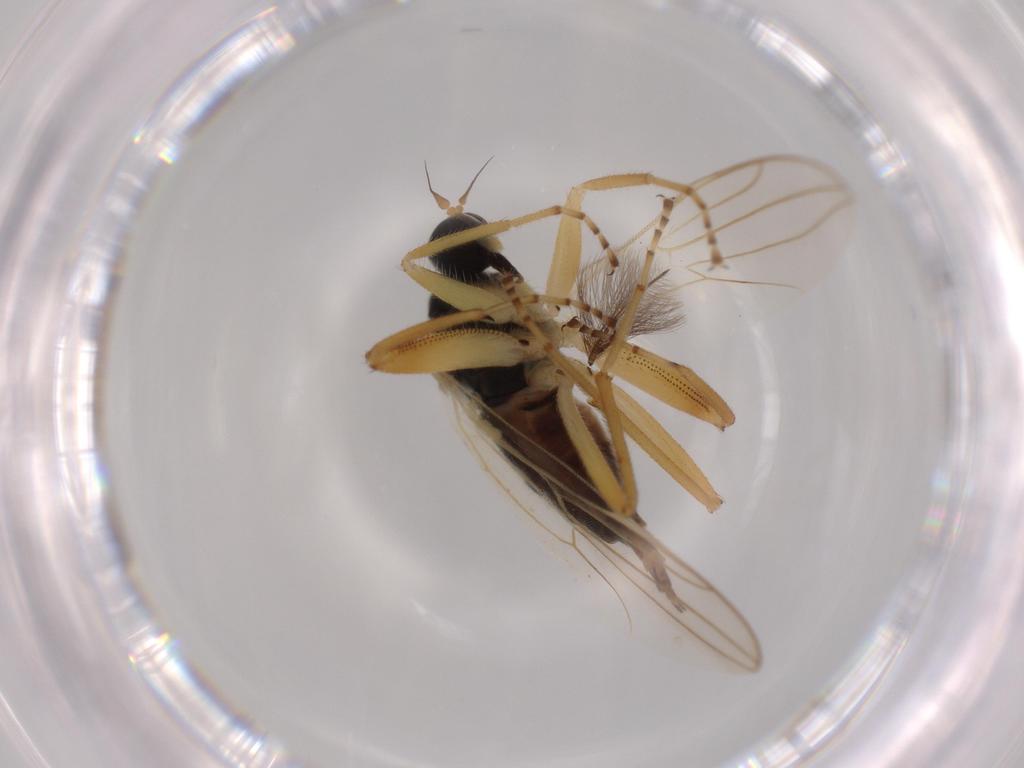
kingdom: Animalia
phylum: Arthropoda
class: Insecta
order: Diptera
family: Hybotidae
